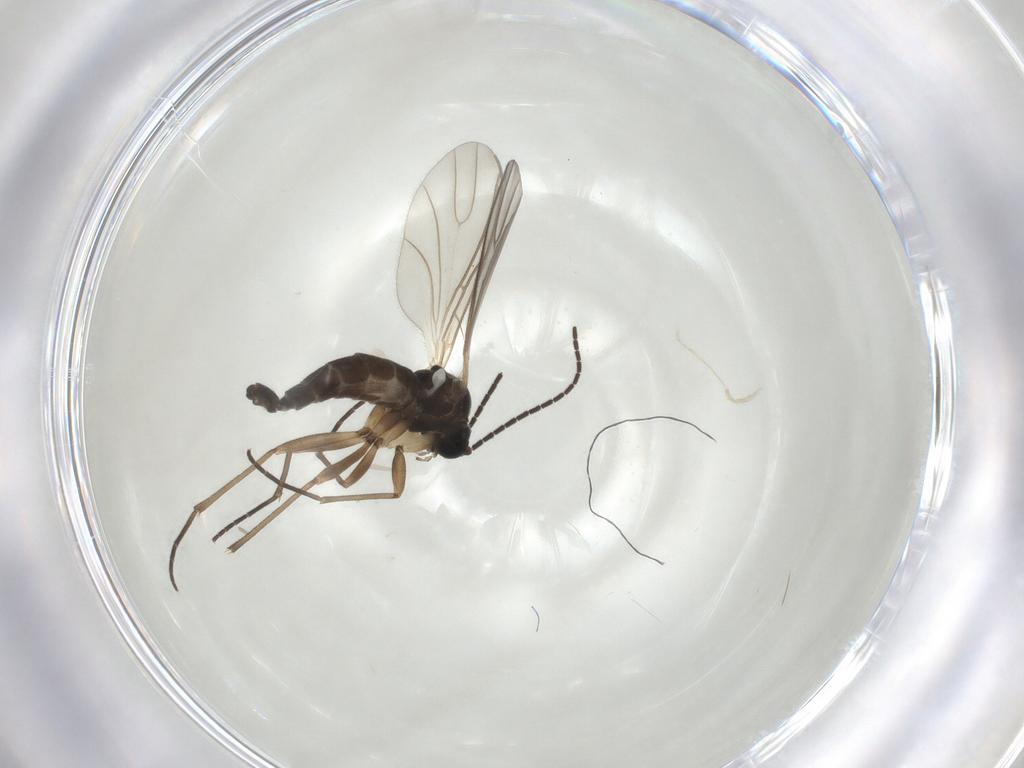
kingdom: Animalia
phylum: Arthropoda
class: Insecta
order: Diptera
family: Sciaridae
